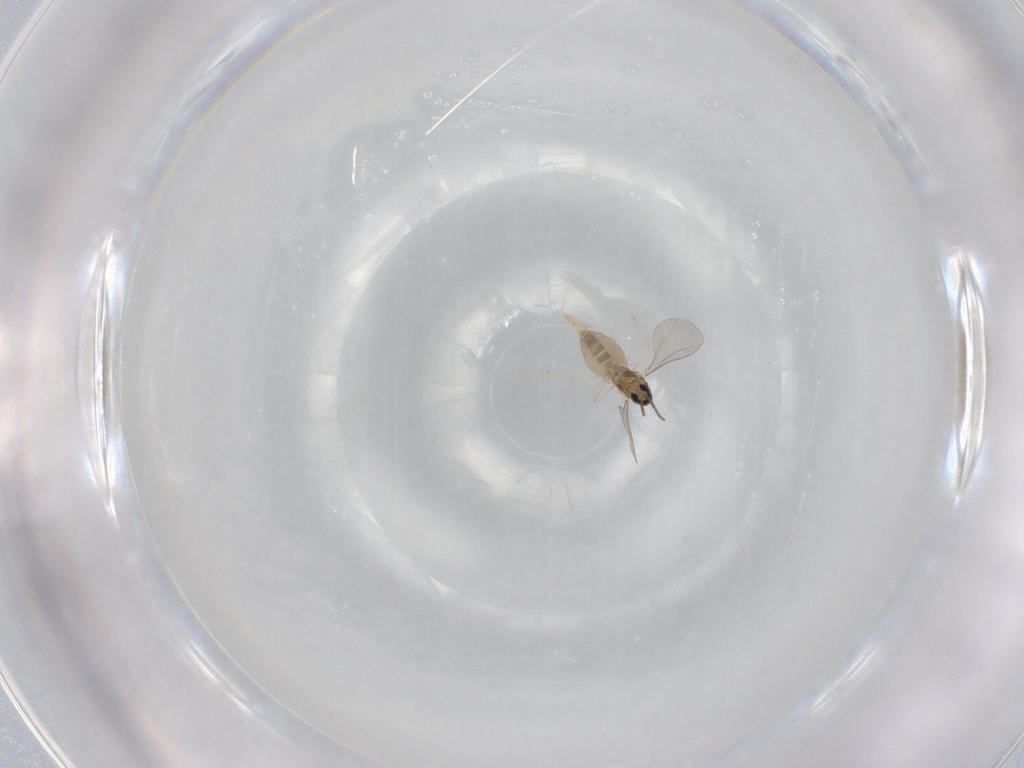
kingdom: Animalia
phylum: Arthropoda
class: Insecta
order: Diptera
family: Cecidomyiidae
